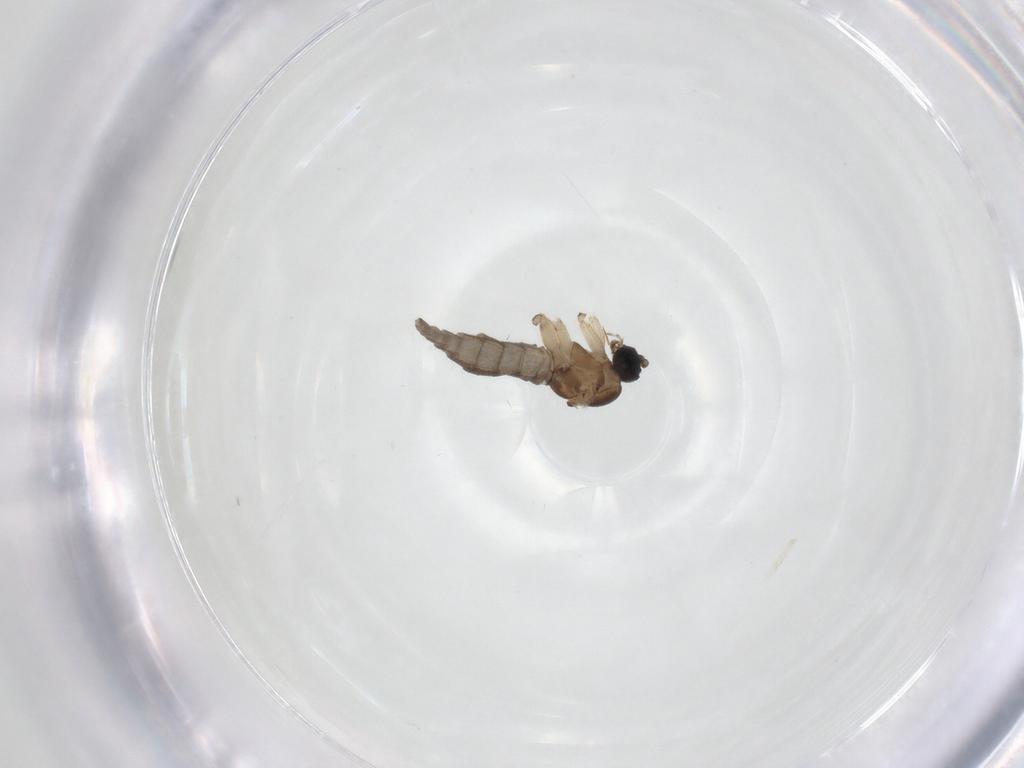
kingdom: Animalia
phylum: Arthropoda
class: Insecta
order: Diptera
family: Sciaridae
